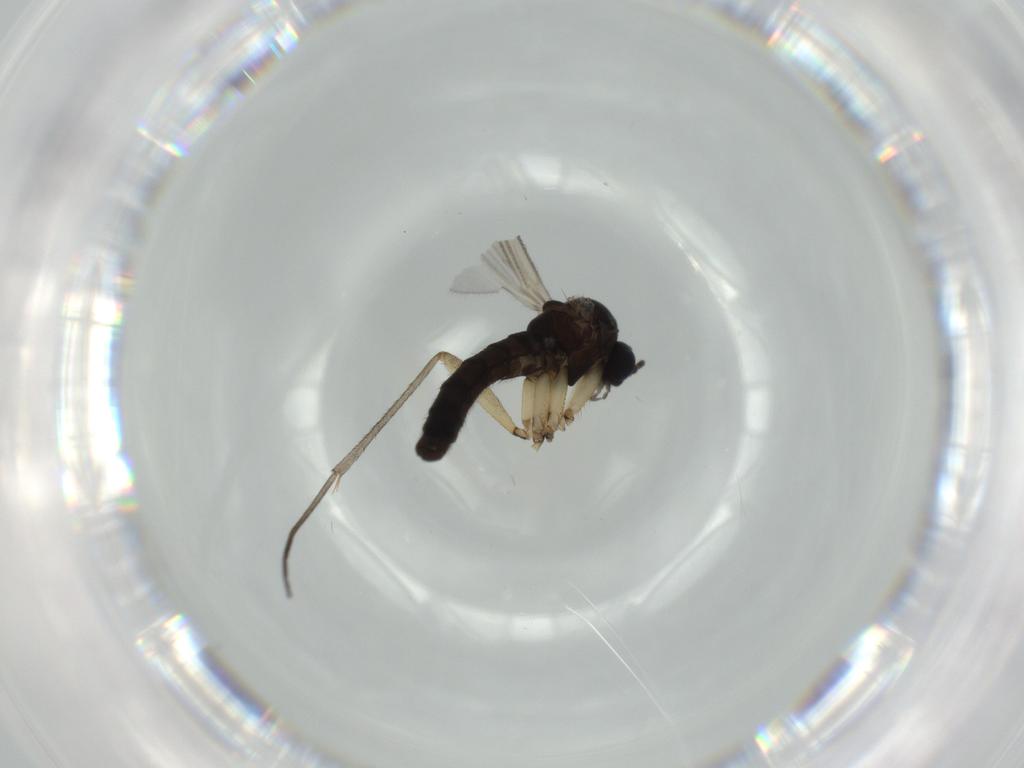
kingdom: Animalia
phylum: Arthropoda
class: Insecta
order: Diptera
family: Sciaridae
